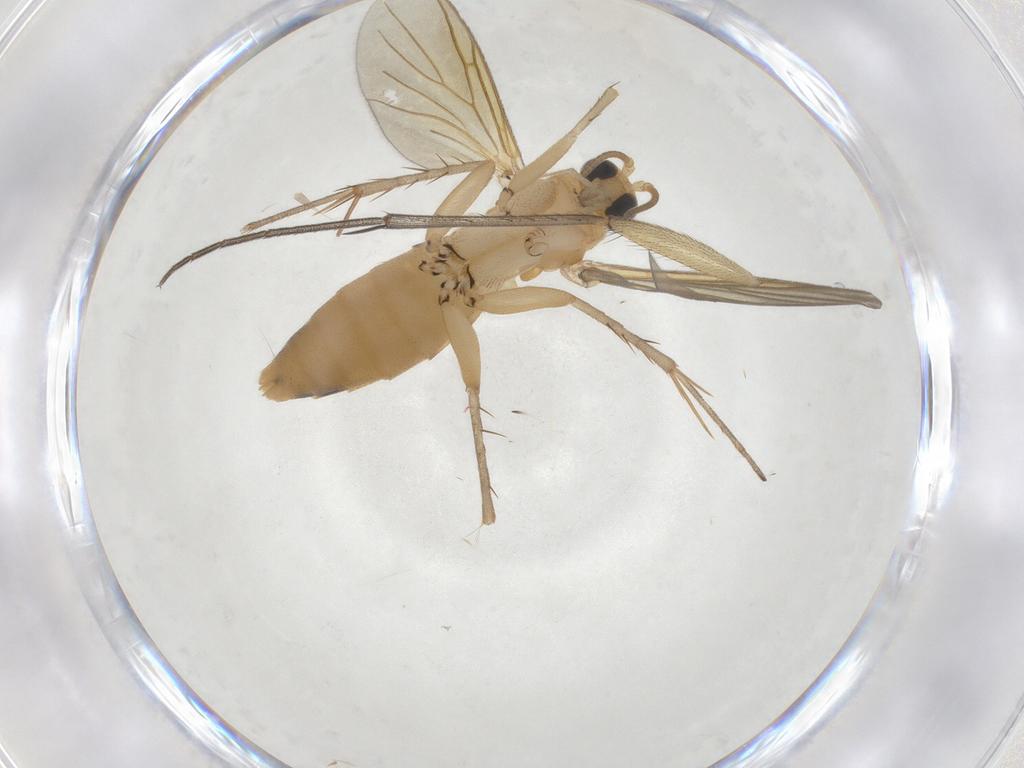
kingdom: Animalia
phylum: Arthropoda
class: Insecta
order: Diptera
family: Mycetophilidae
